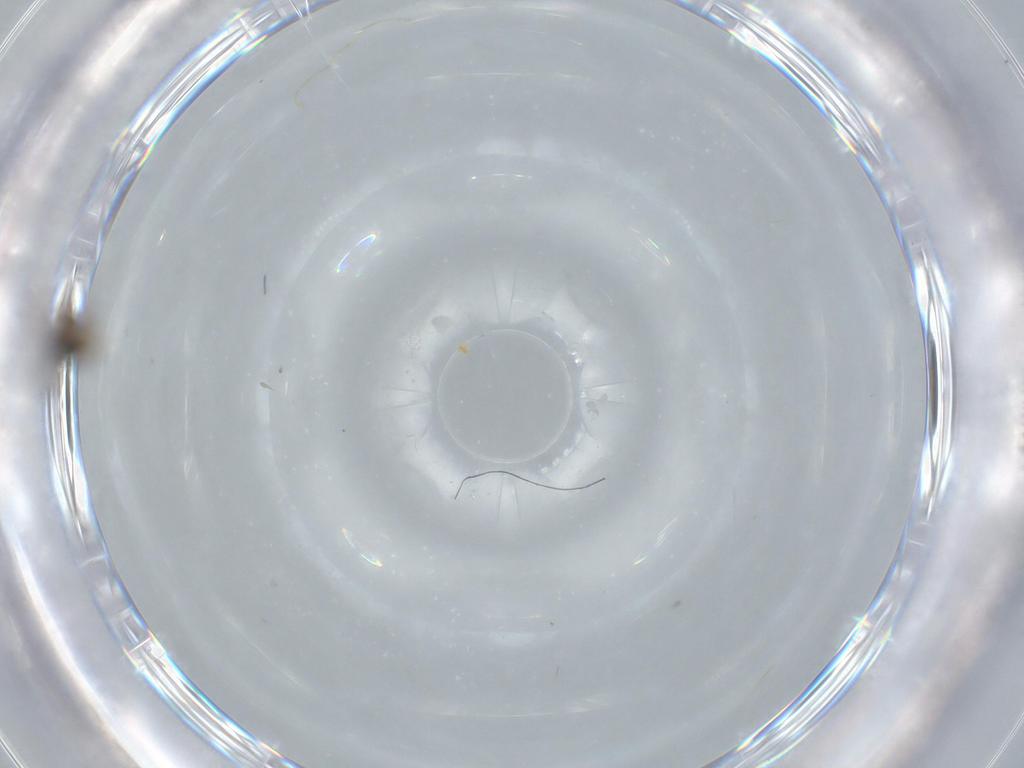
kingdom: Animalia
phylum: Arthropoda
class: Insecta
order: Hymenoptera
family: Platygastridae
